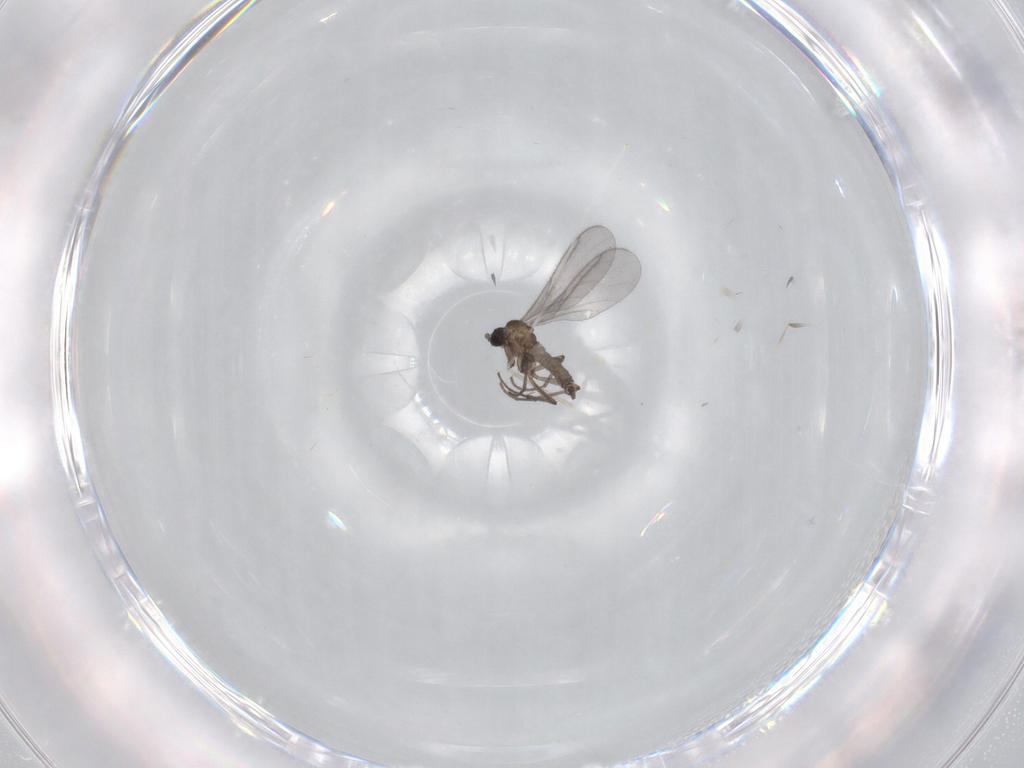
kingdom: Animalia
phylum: Arthropoda
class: Insecta
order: Diptera
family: Sciaridae
